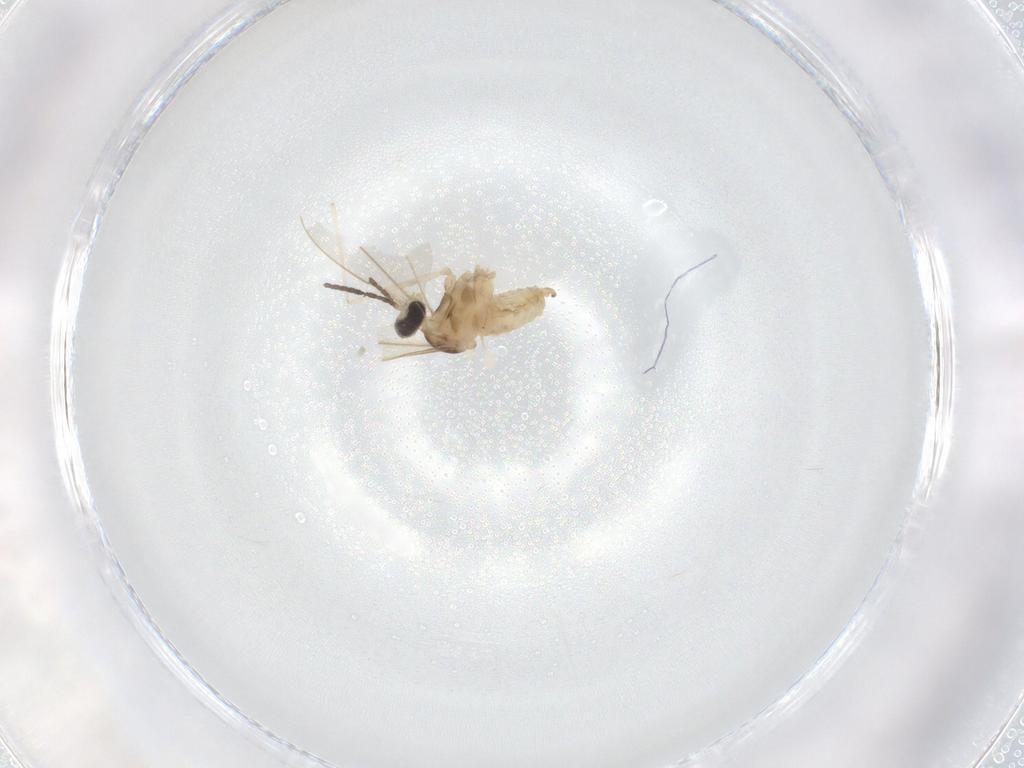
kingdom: Animalia
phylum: Arthropoda
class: Insecta
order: Diptera
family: Cecidomyiidae
